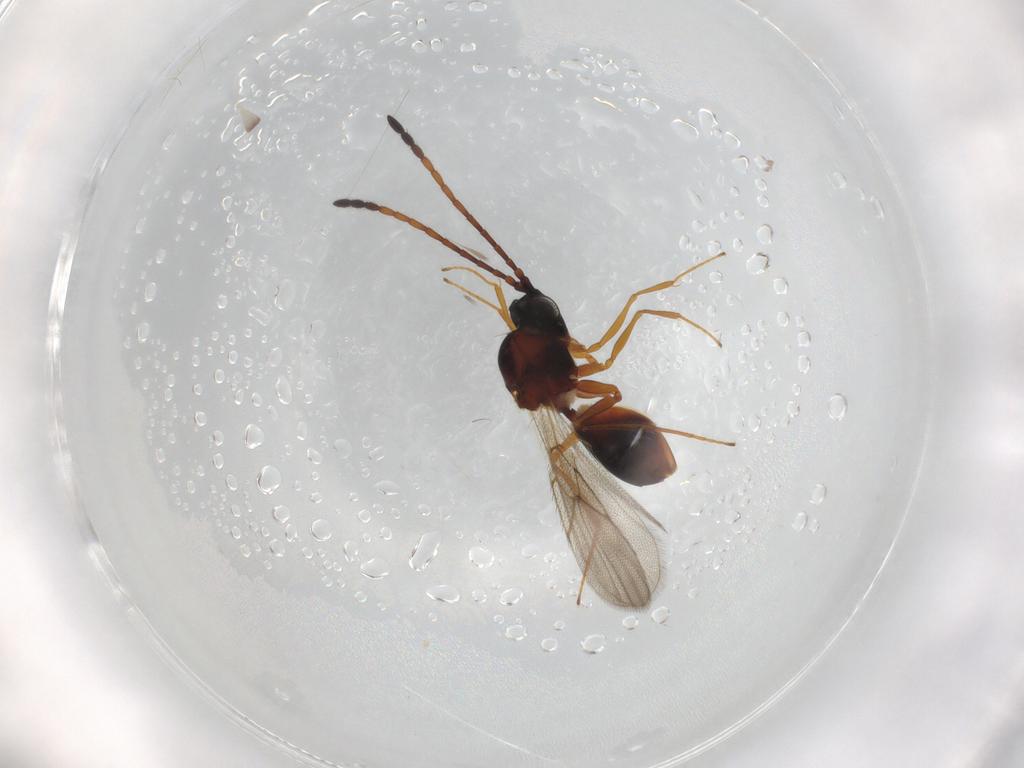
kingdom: Animalia
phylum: Arthropoda
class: Insecta
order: Hymenoptera
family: Figitidae
